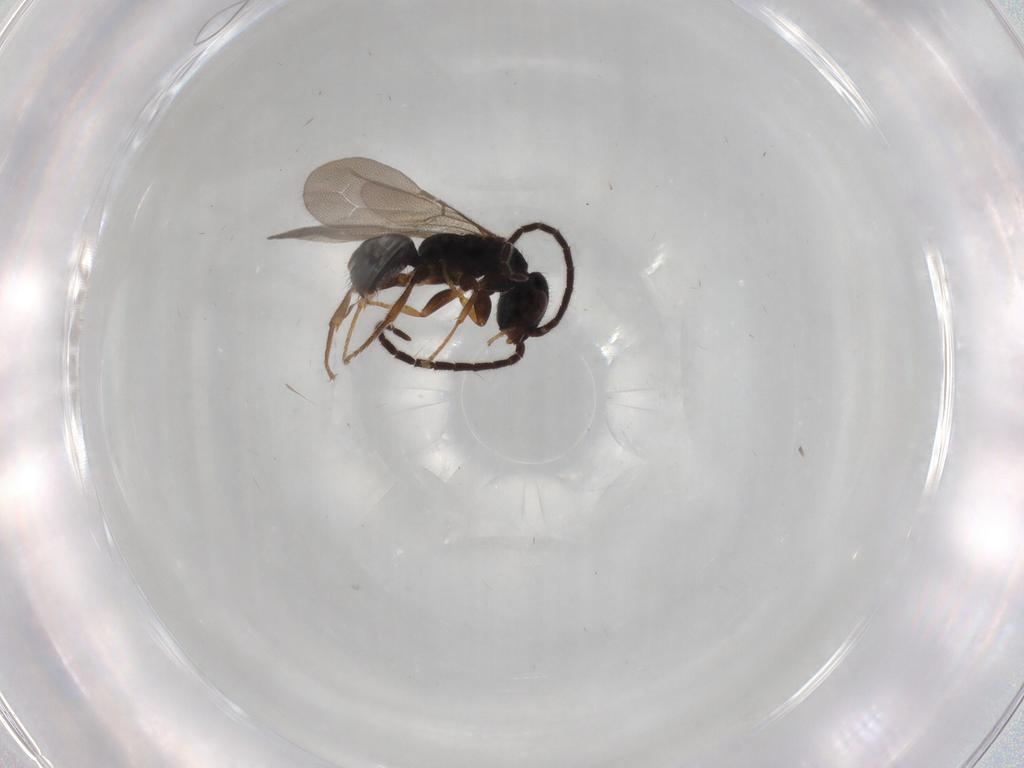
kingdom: Animalia
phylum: Arthropoda
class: Insecta
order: Hymenoptera
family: Bethylidae
